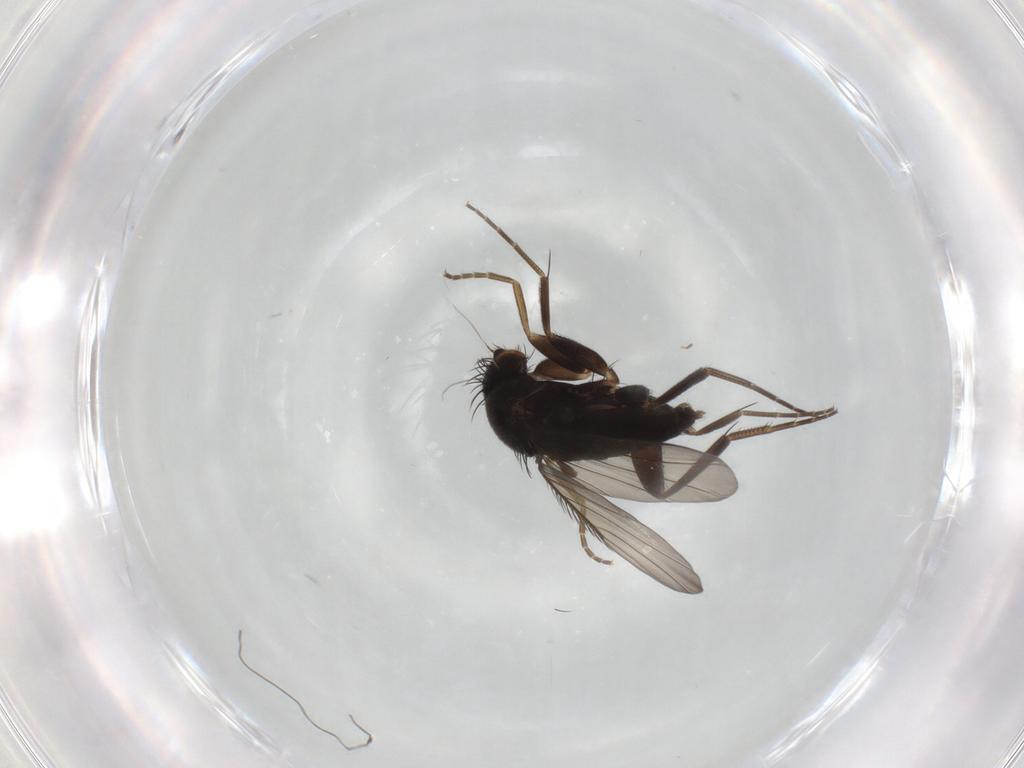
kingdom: Animalia
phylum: Arthropoda
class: Insecta
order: Diptera
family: Phoridae
